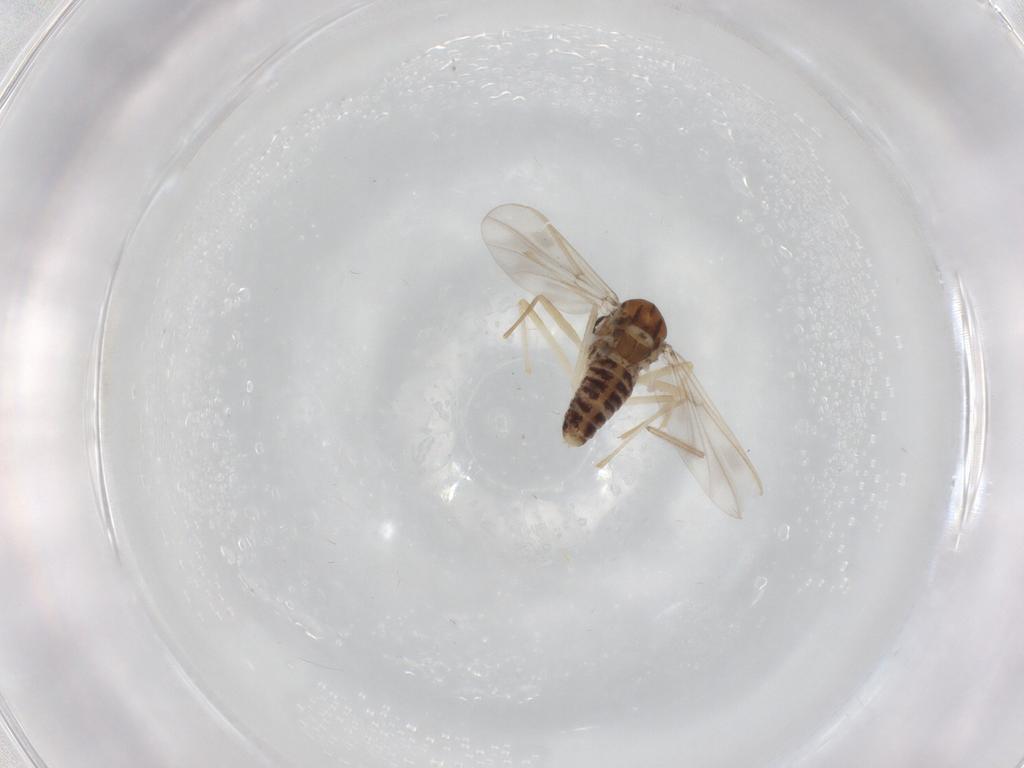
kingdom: Animalia
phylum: Arthropoda
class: Insecta
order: Diptera
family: Chironomidae
